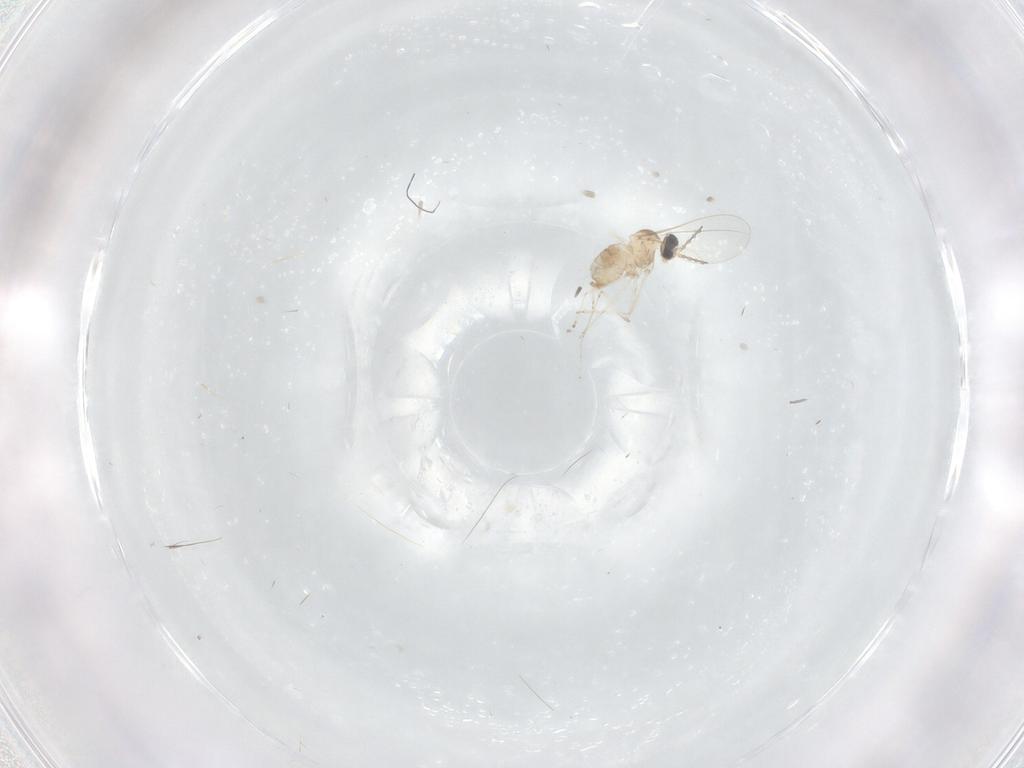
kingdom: Animalia
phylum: Arthropoda
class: Insecta
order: Diptera
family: Cecidomyiidae
